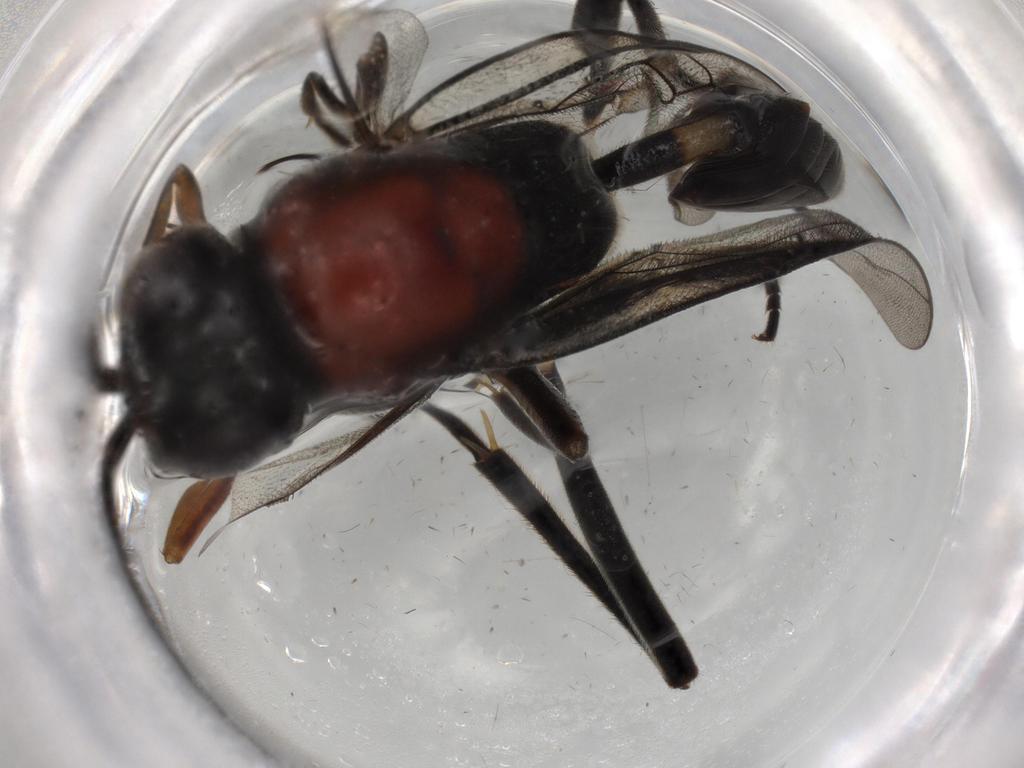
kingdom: Animalia
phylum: Arthropoda
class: Insecta
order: Hymenoptera
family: Evaniidae
